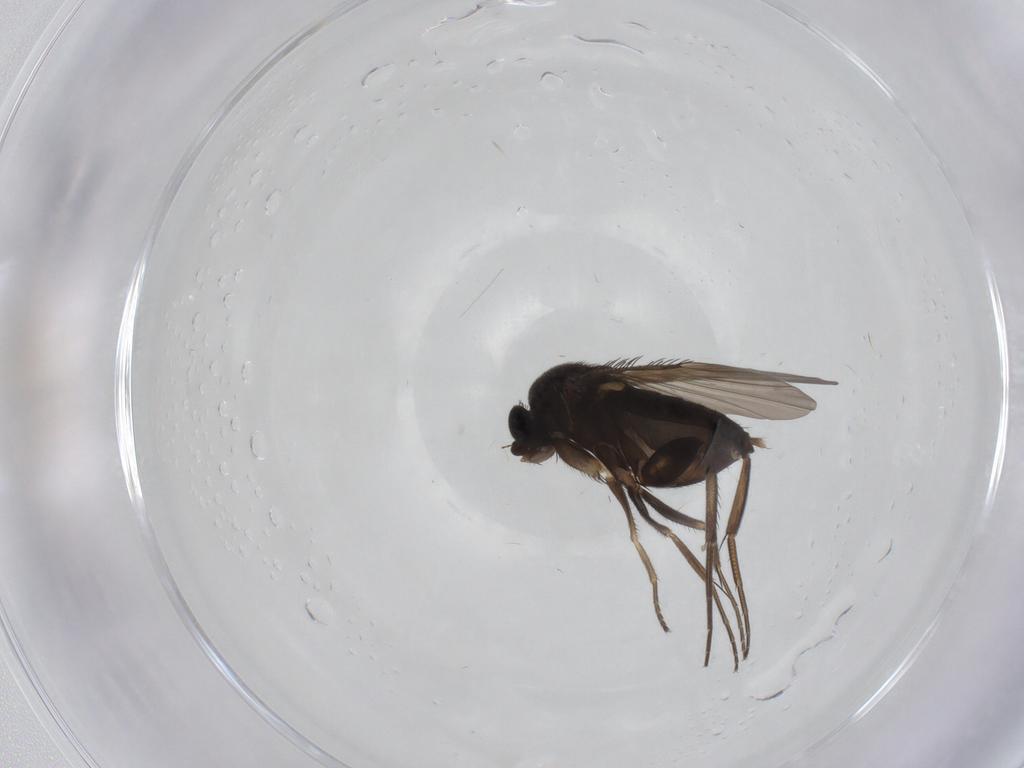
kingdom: Animalia
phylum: Arthropoda
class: Insecta
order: Diptera
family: Phoridae
